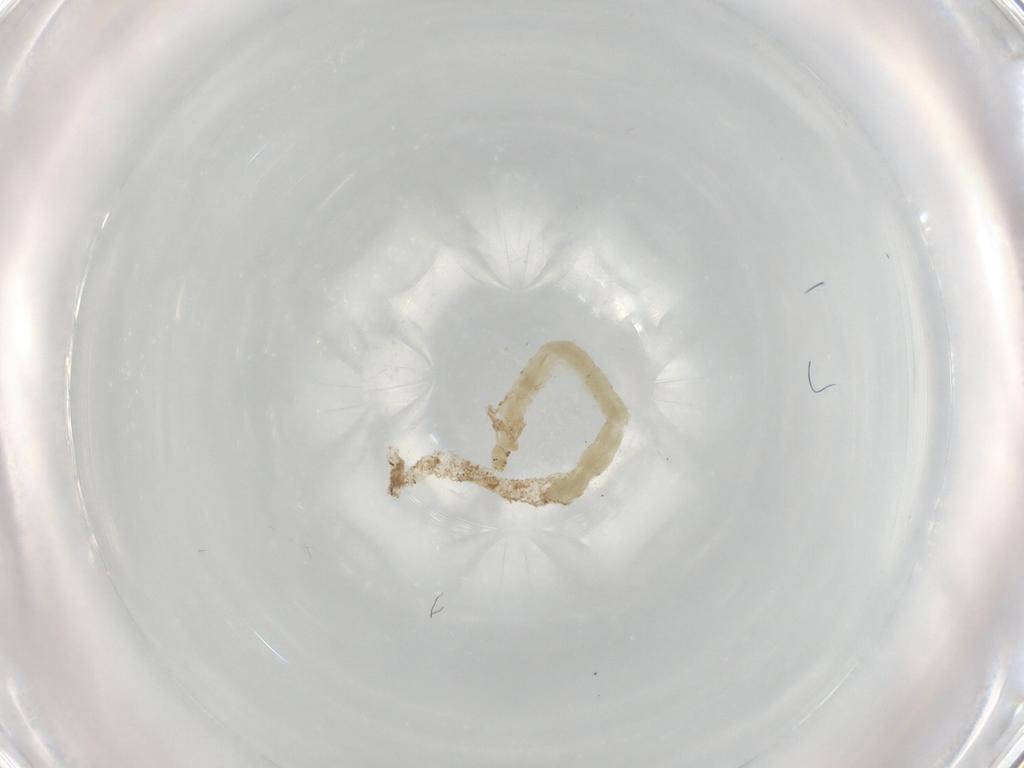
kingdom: Animalia
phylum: Arthropoda
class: Insecta
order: Diptera
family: Chironomidae
